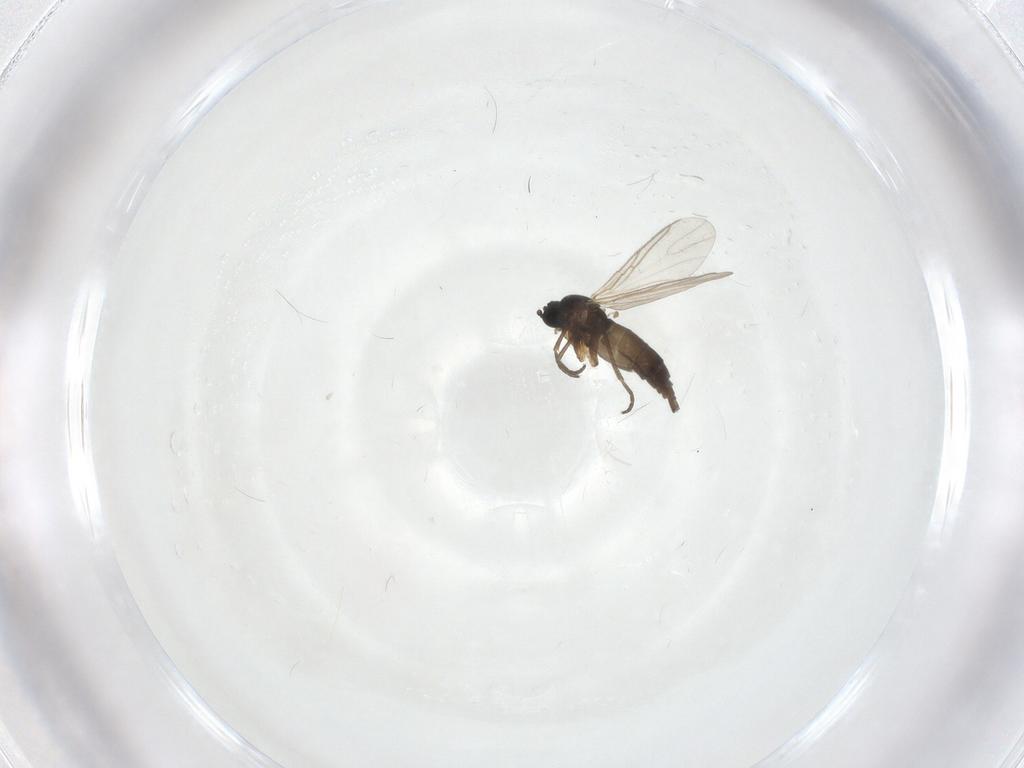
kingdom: Animalia
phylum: Arthropoda
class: Insecta
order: Diptera
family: Sciaridae
